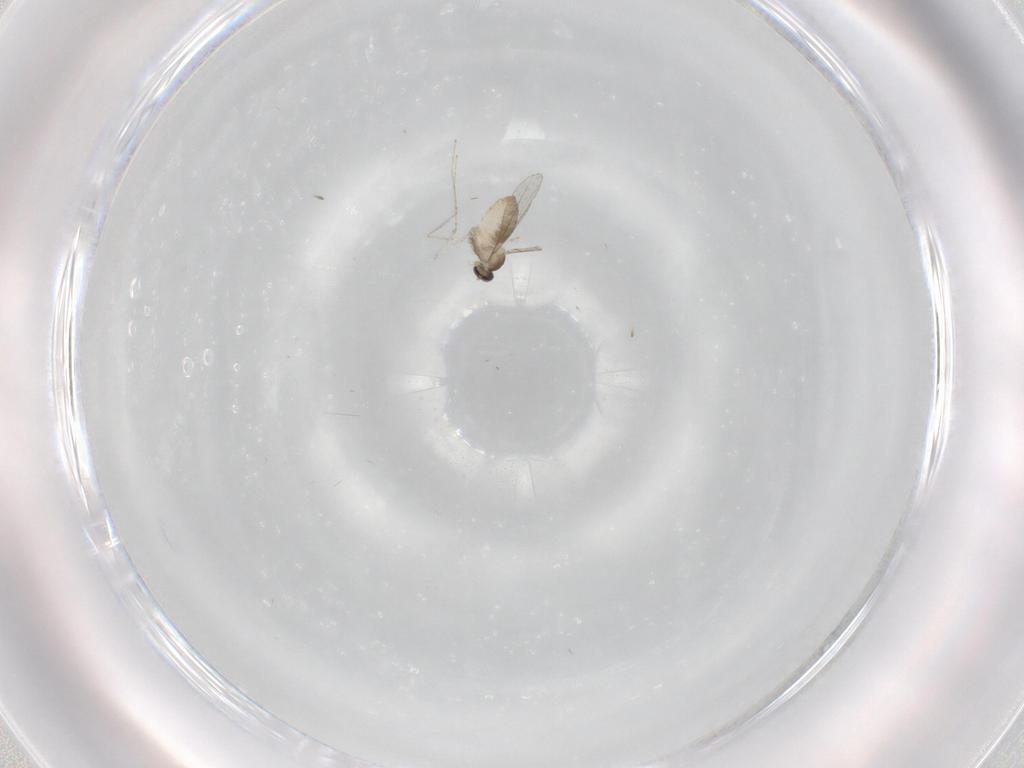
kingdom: Animalia
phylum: Arthropoda
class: Insecta
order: Diptera
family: Cecidomyiidae
